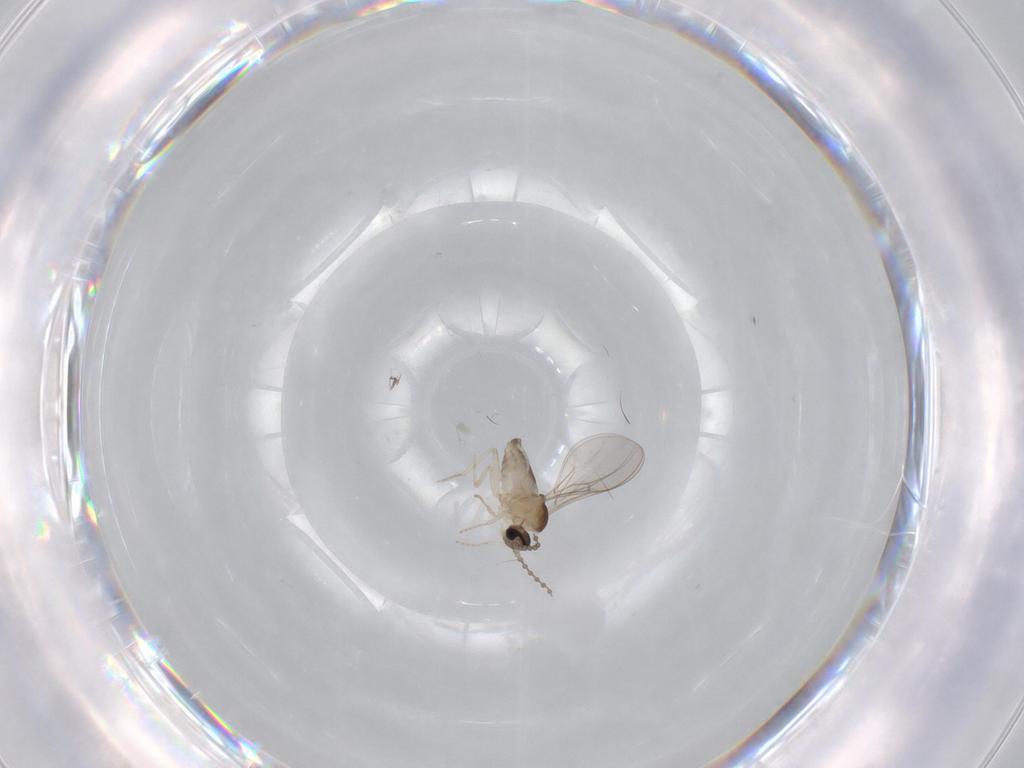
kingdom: Animalia
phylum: Arthropoda
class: Insecta
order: Diptera
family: Cecidomyiidae
